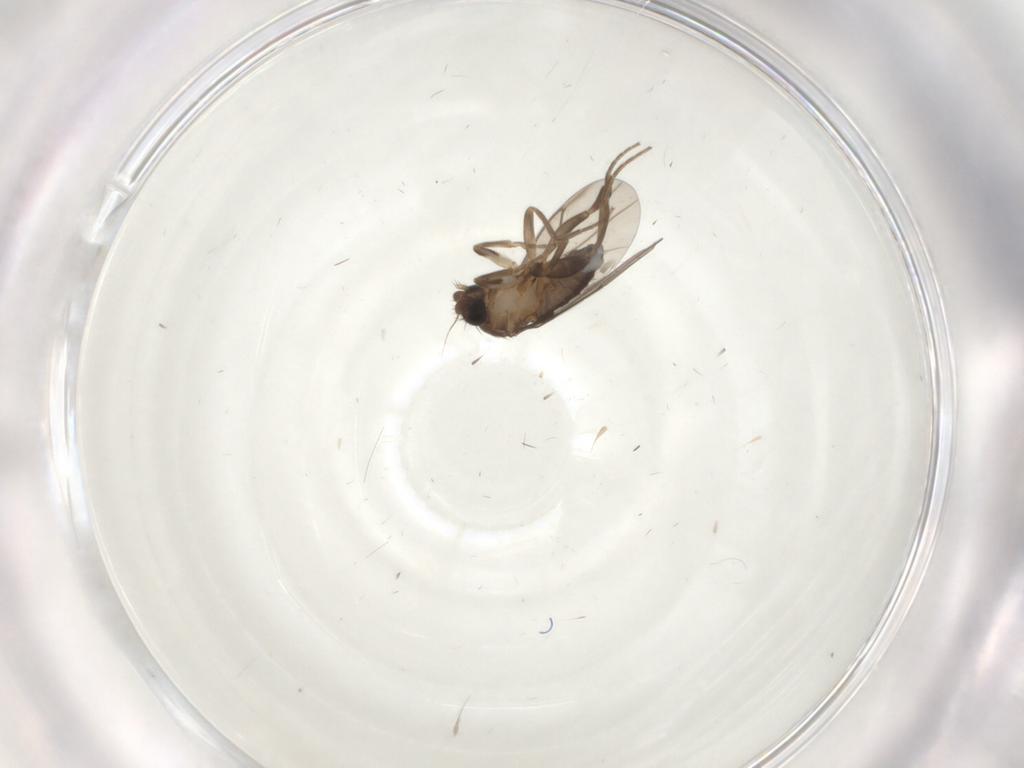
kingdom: Animalia
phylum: Arthropoda
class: Insecta
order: Diptera
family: Cecidomyiidae
